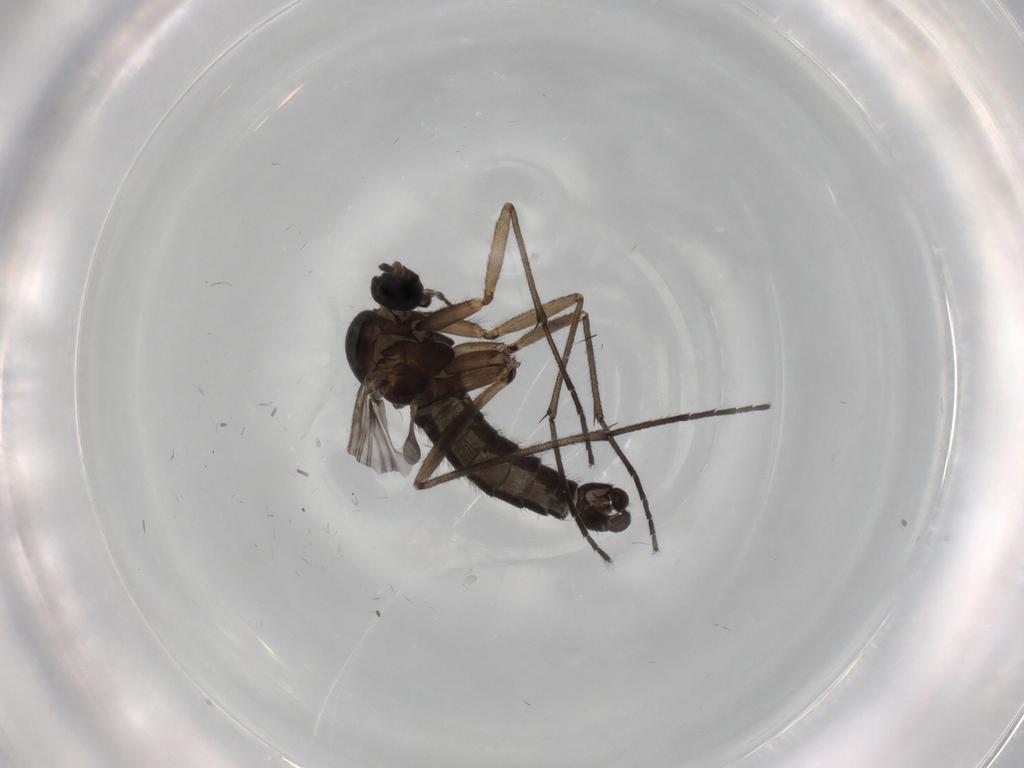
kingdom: Animalia
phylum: Arthropoda
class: Insecta
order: Diptera
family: Sciaridae
